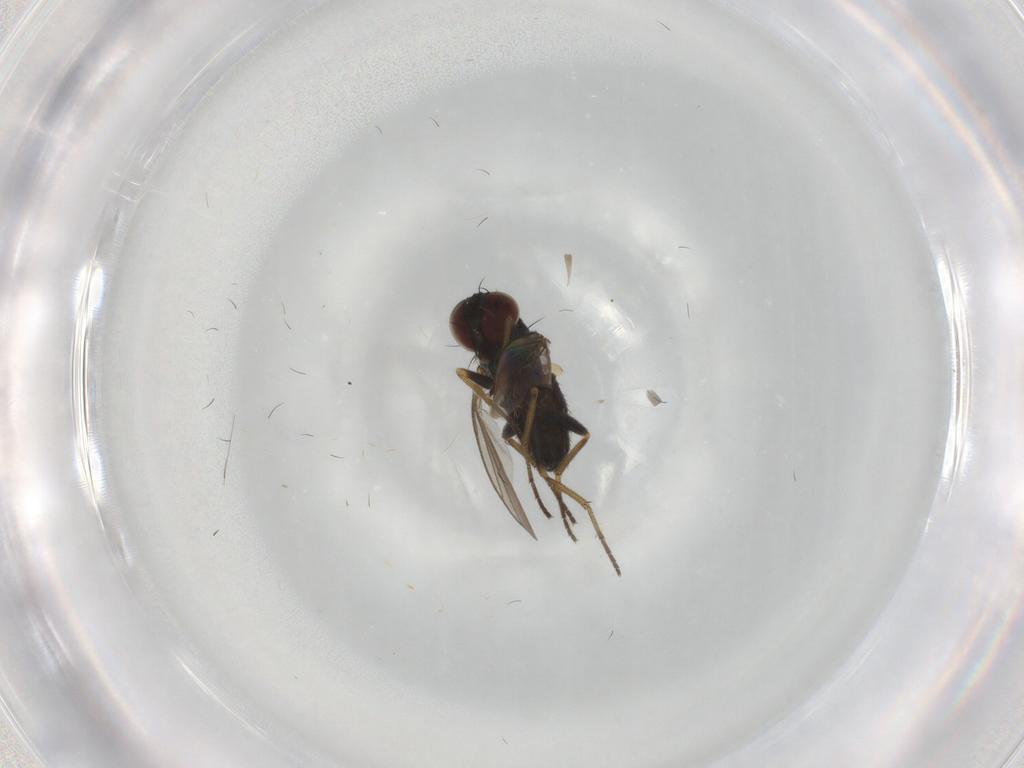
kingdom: Animalia
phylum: Arthropoda
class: Insecta
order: Diptera
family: Dolichopodidae
